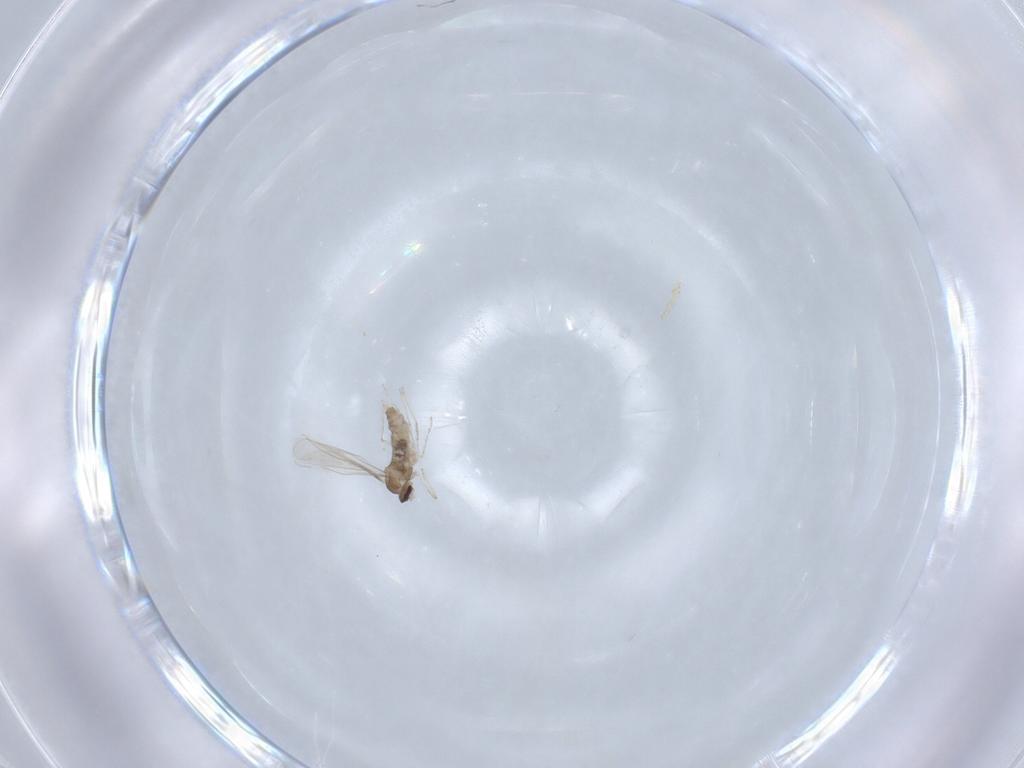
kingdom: Animalia
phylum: Arthropoda
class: Insecta
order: Diptera
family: Cecidomyiidae
